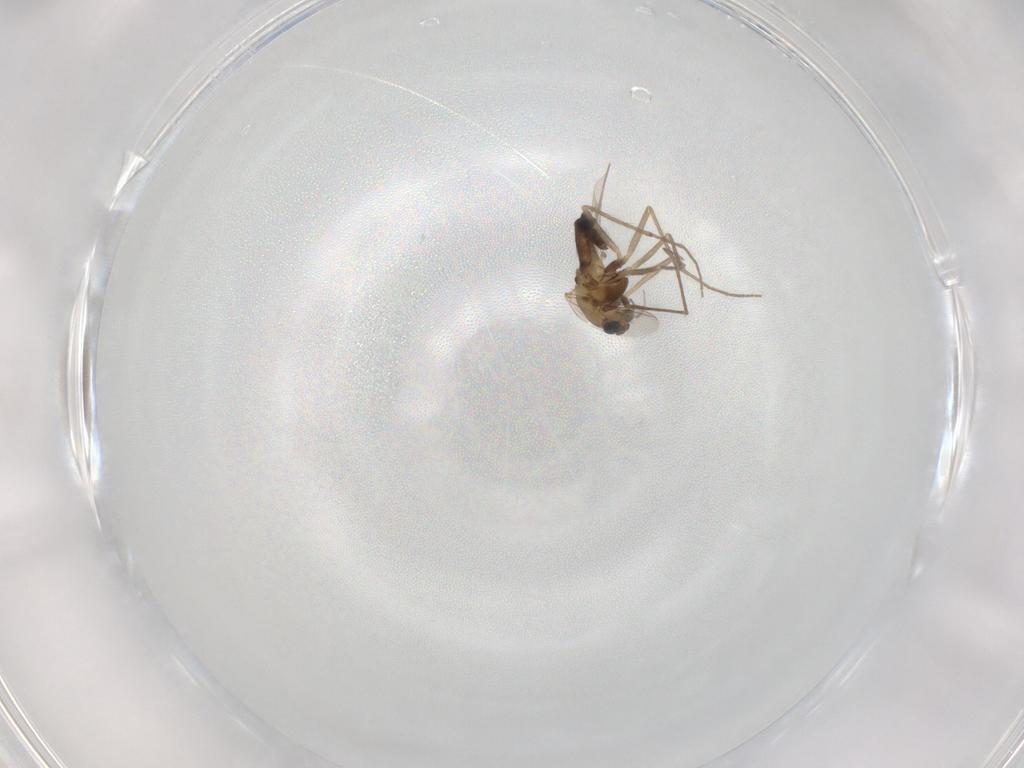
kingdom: Animalia
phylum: Arthropoda
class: Insecta
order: Diptera
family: Chironomidae
